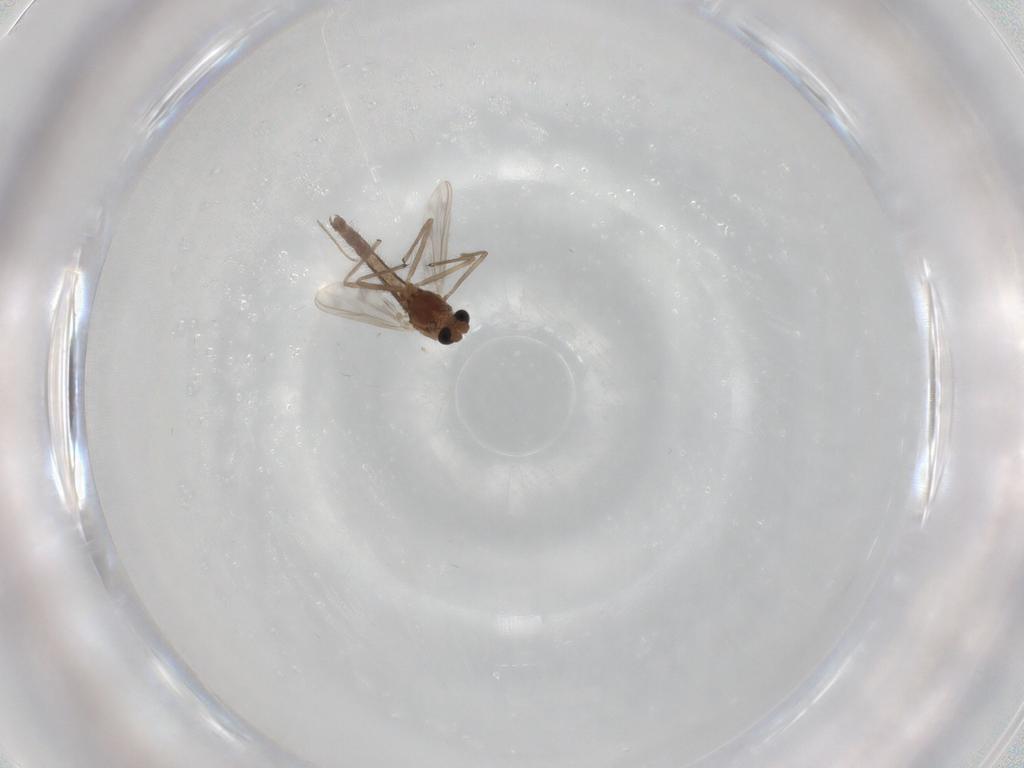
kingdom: Animalia
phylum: Arthropoda
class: Insecta
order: Diptera
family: Chironomidae
